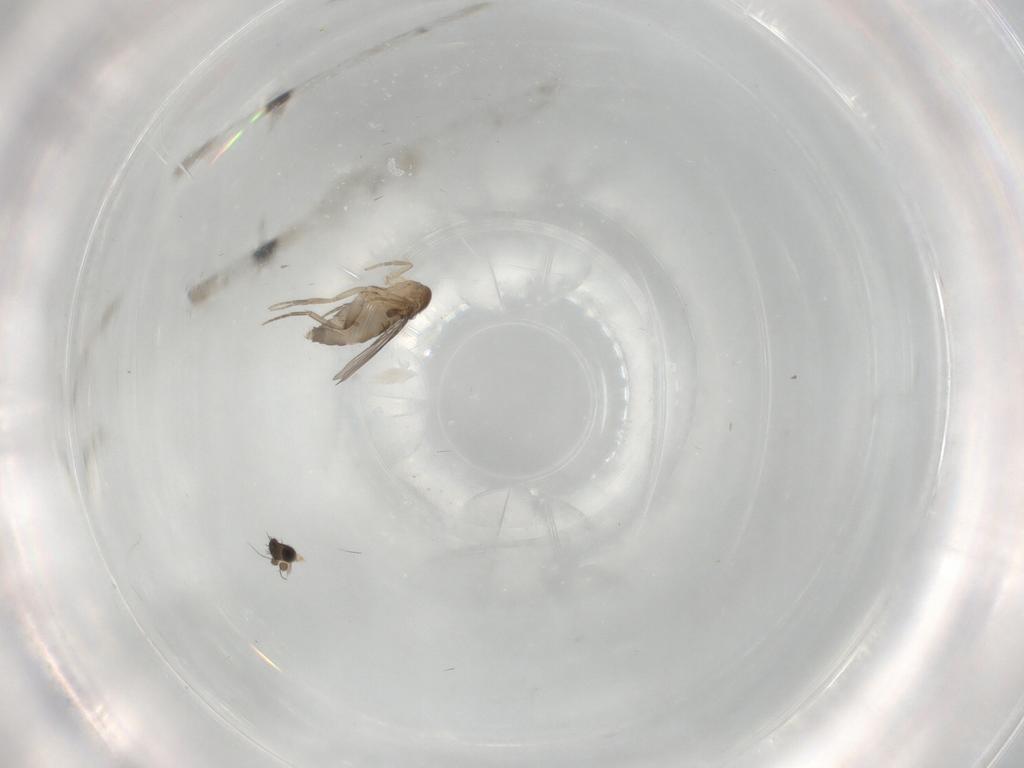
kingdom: Animalia
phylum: Arthropoda
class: Insecta
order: Diptera
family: Phoridae
